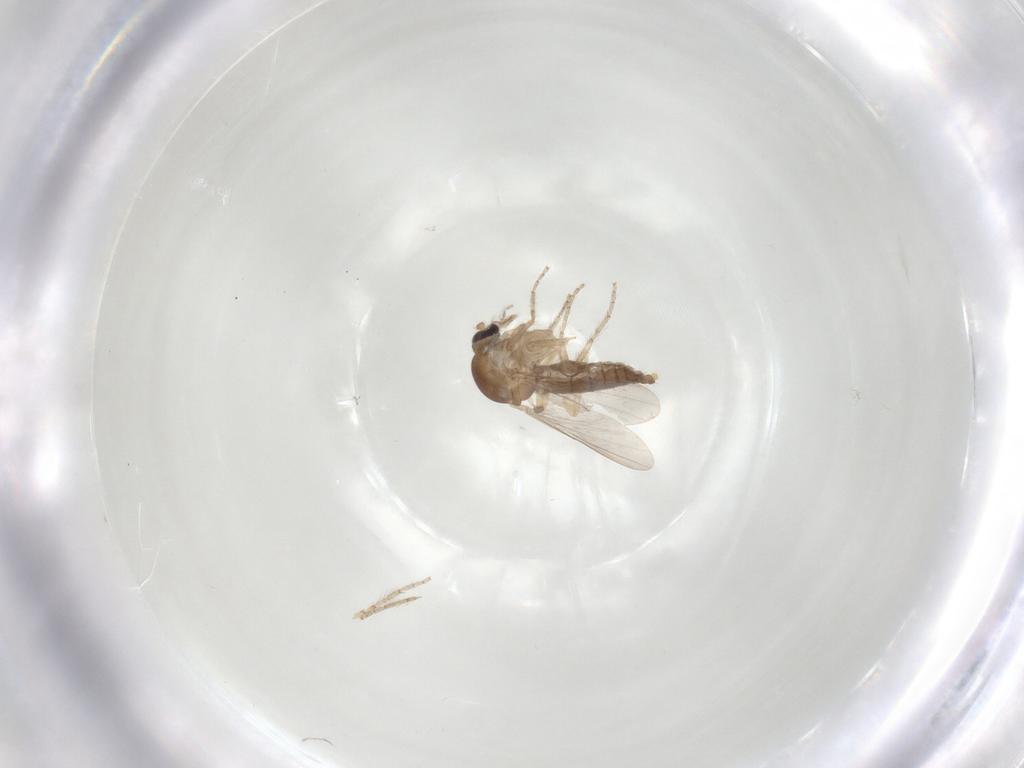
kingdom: Animalia
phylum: Arthropoda
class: Insecta
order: Diptera
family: Ceratopogonidae
